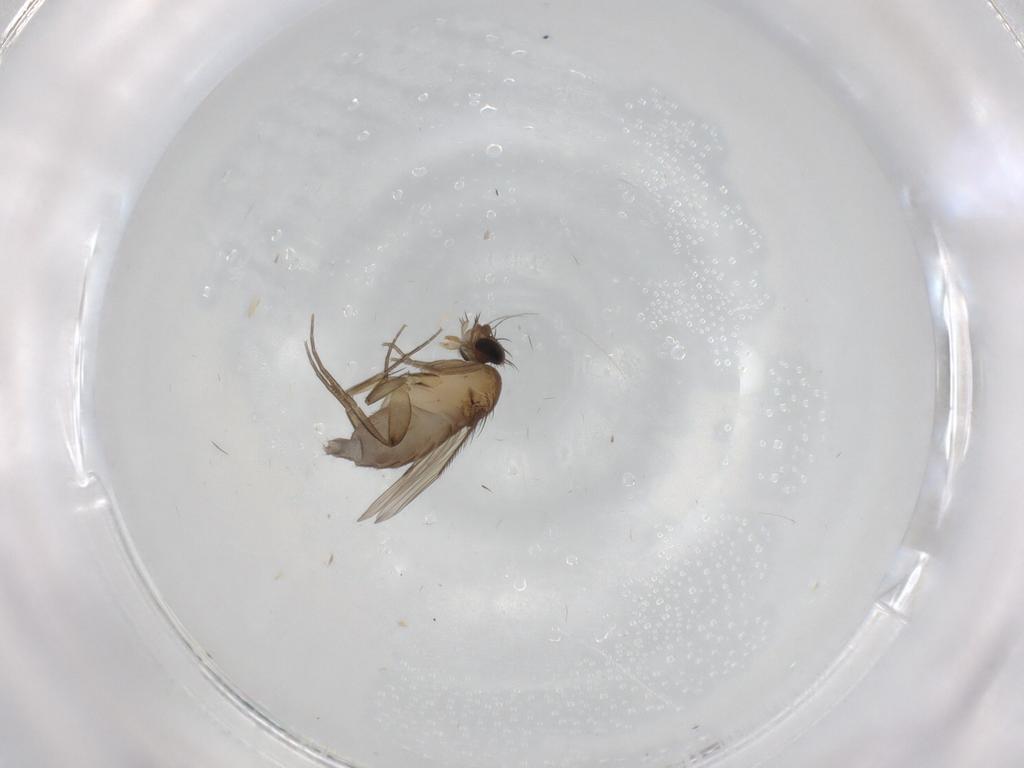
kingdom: Animalia
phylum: Arthropoda
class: Insecta
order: Diptera
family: Phoridae
